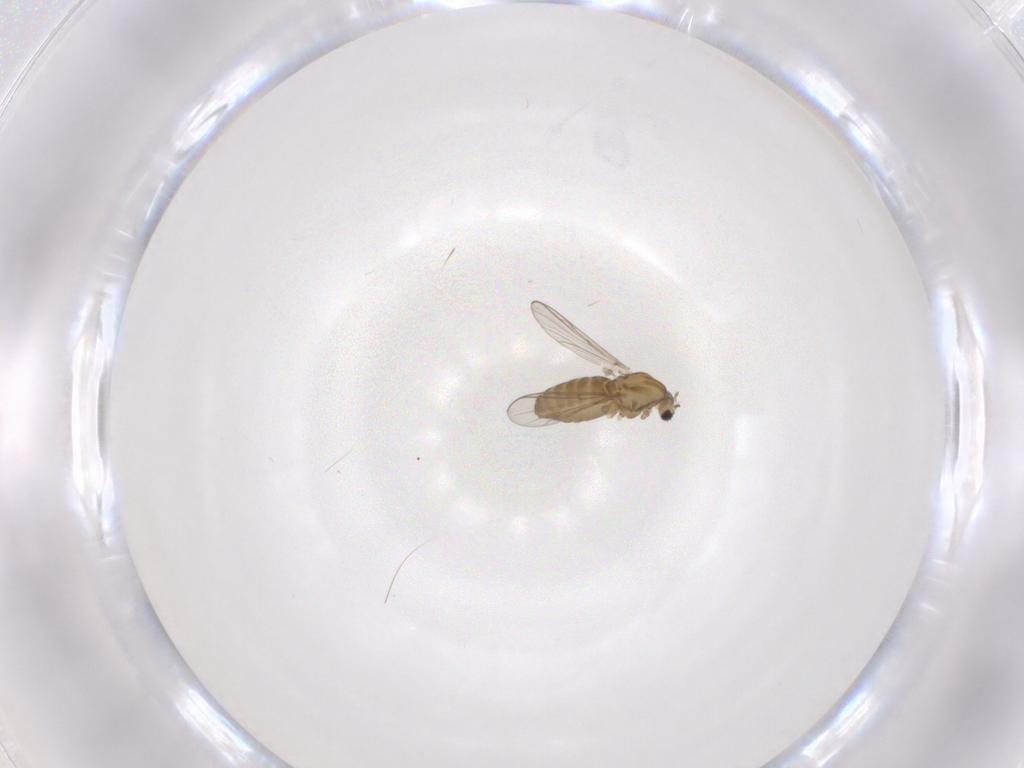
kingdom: Animalia
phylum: Arthropoda
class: Insecta
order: Diptera
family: Chironomidae
